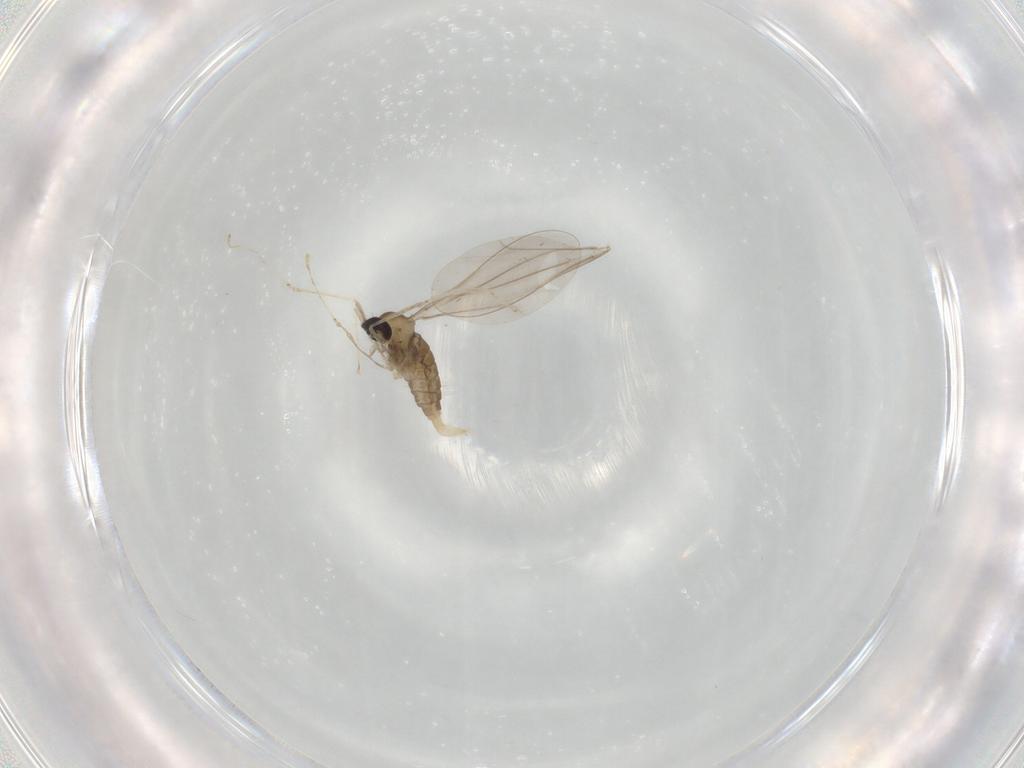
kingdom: Animalia
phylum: Arthropoda
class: Insecta
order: Diptera
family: Cecidomyiidae
